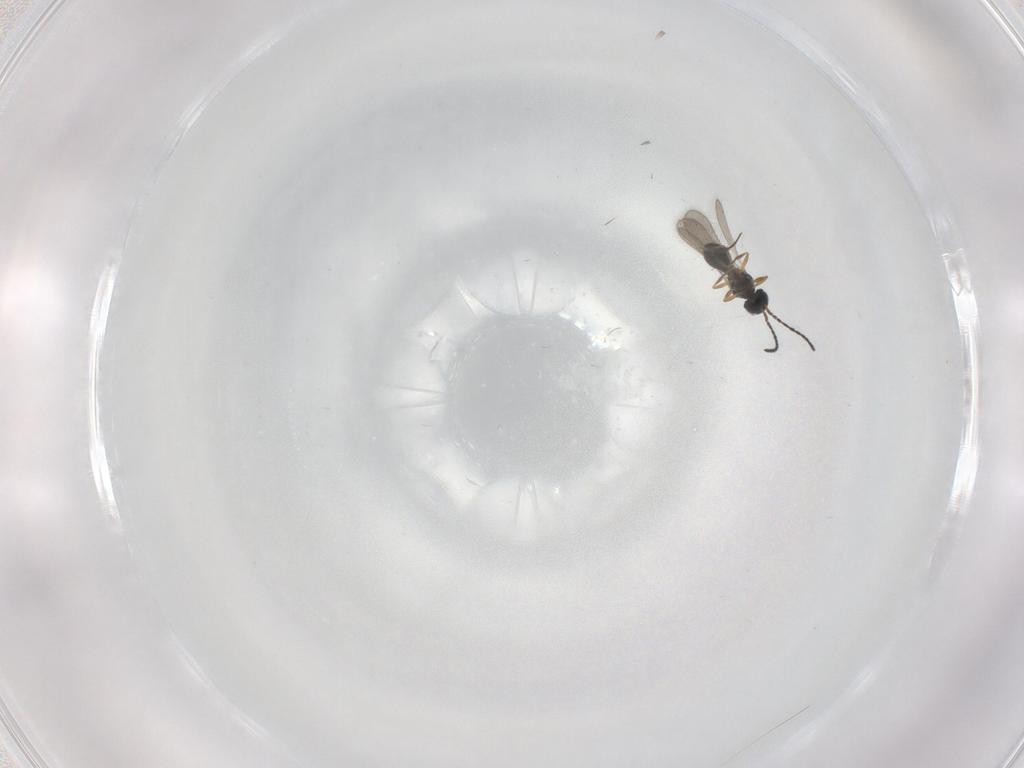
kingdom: Animalia
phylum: Arthropoda
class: Insecta
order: Hymenoptera
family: Scelionidae
